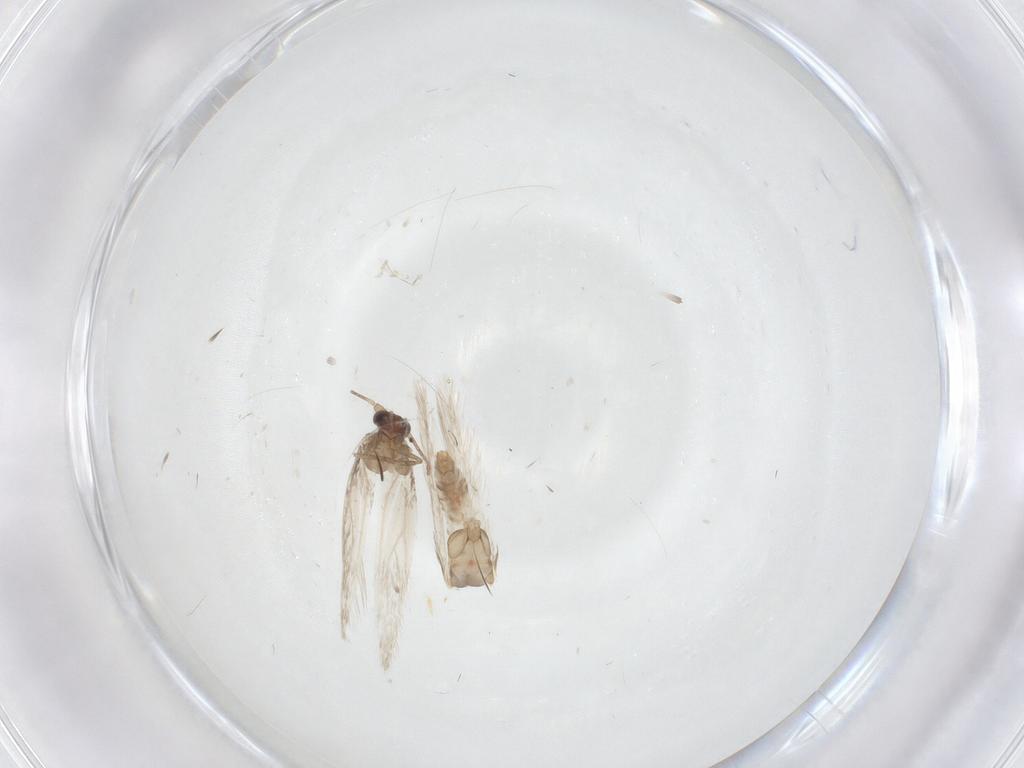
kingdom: Animalia
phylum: Arthropoda
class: Insecta
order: Lepidoptera
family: Nepticulidae
